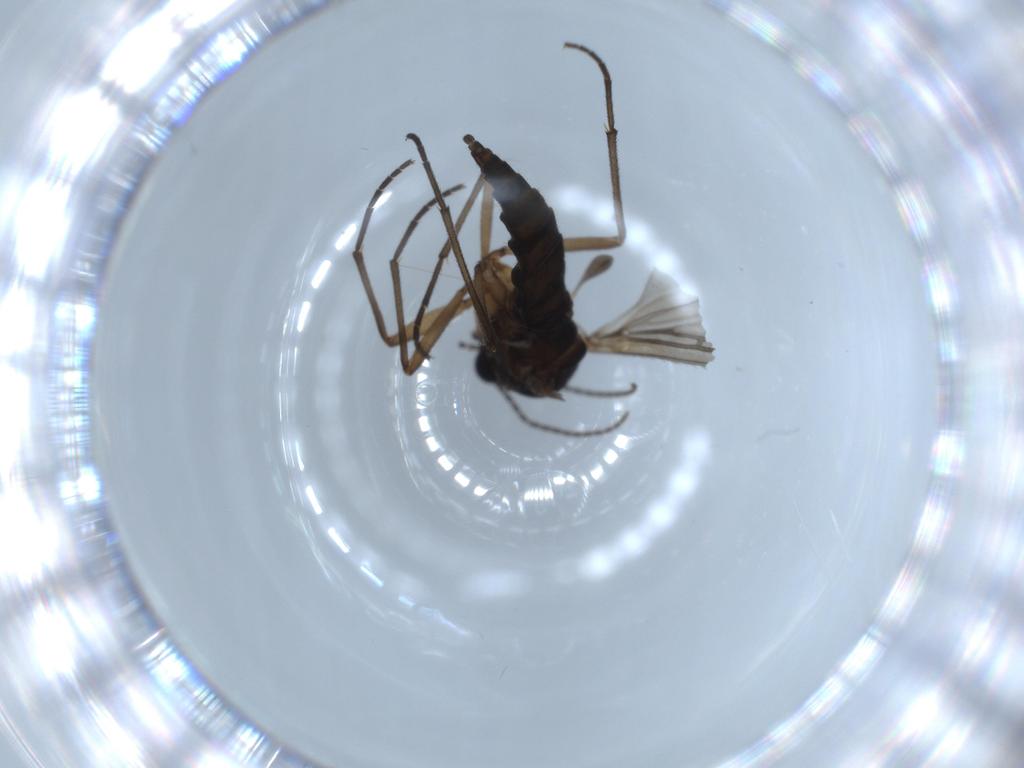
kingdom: Animalia
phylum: Arthropoda
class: Insecta
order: Diptera
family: Sciaridae
